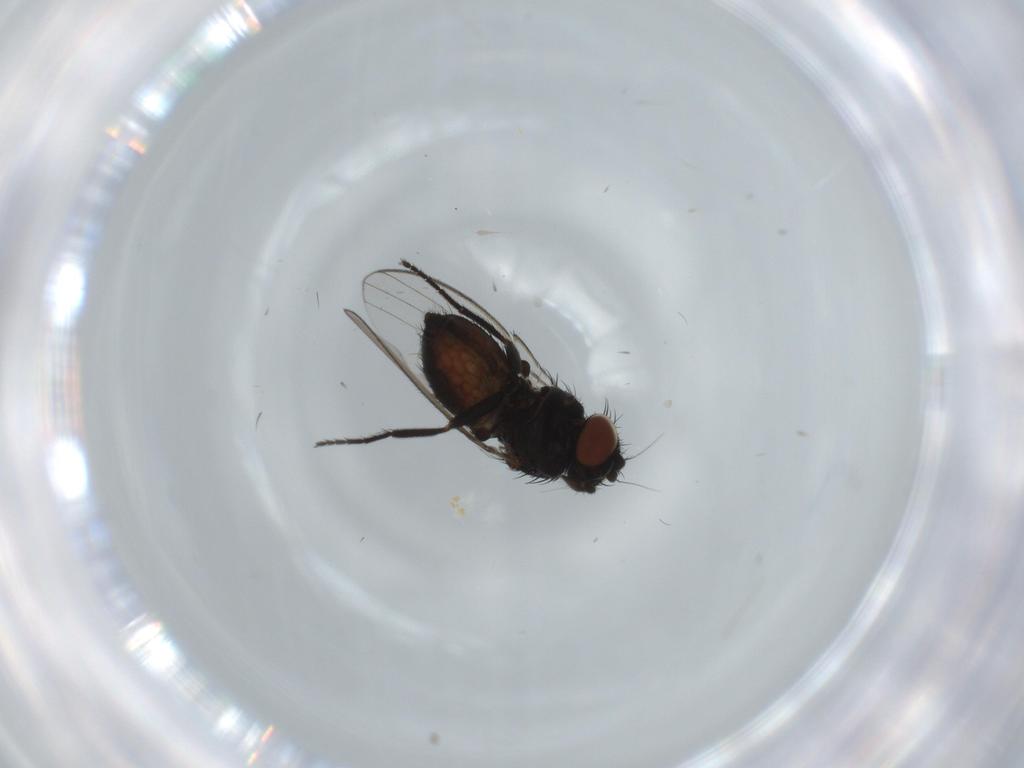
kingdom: Animalia
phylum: Arthropoda
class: Insecta
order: Diptera
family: Milichiidae
